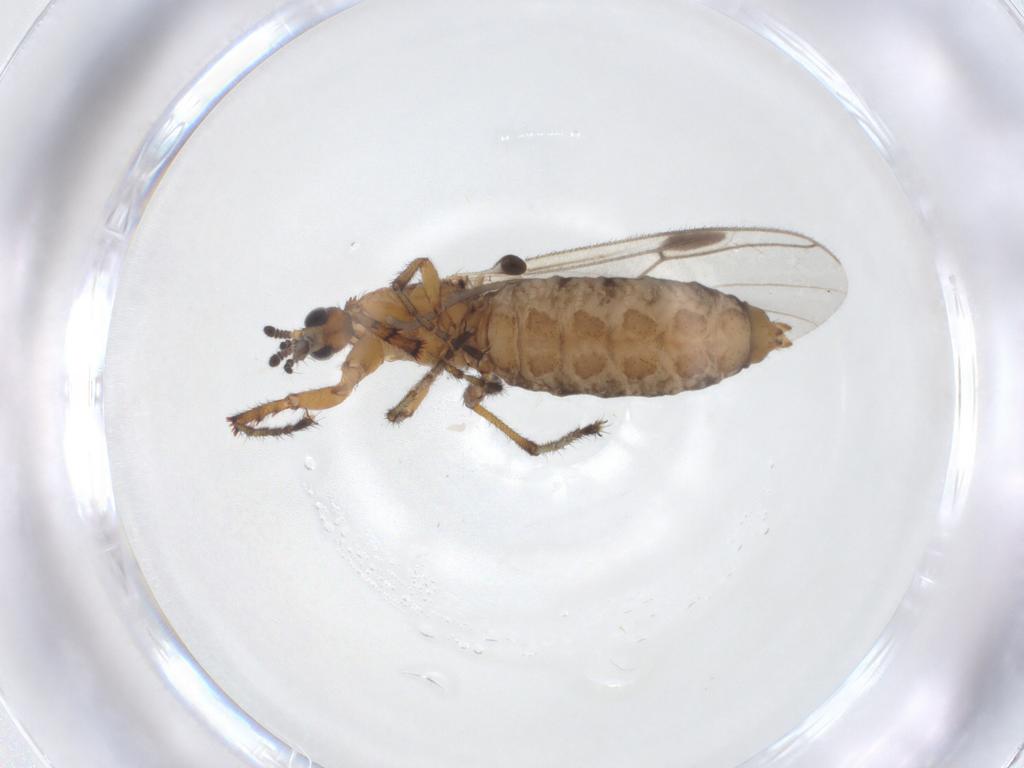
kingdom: Animalia
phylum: Arthropoda
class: Insecta
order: Diptera
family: Bibionidae
